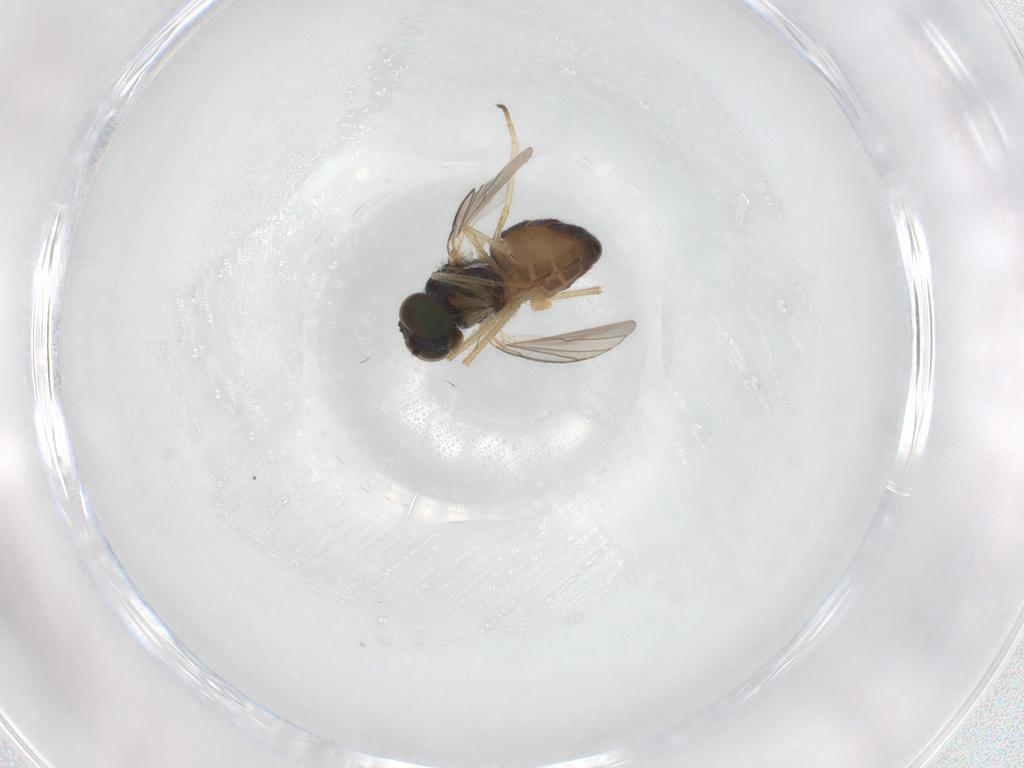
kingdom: Animalia
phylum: Arthropoda
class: Insecta
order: Diptera
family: Dolichopodidae
